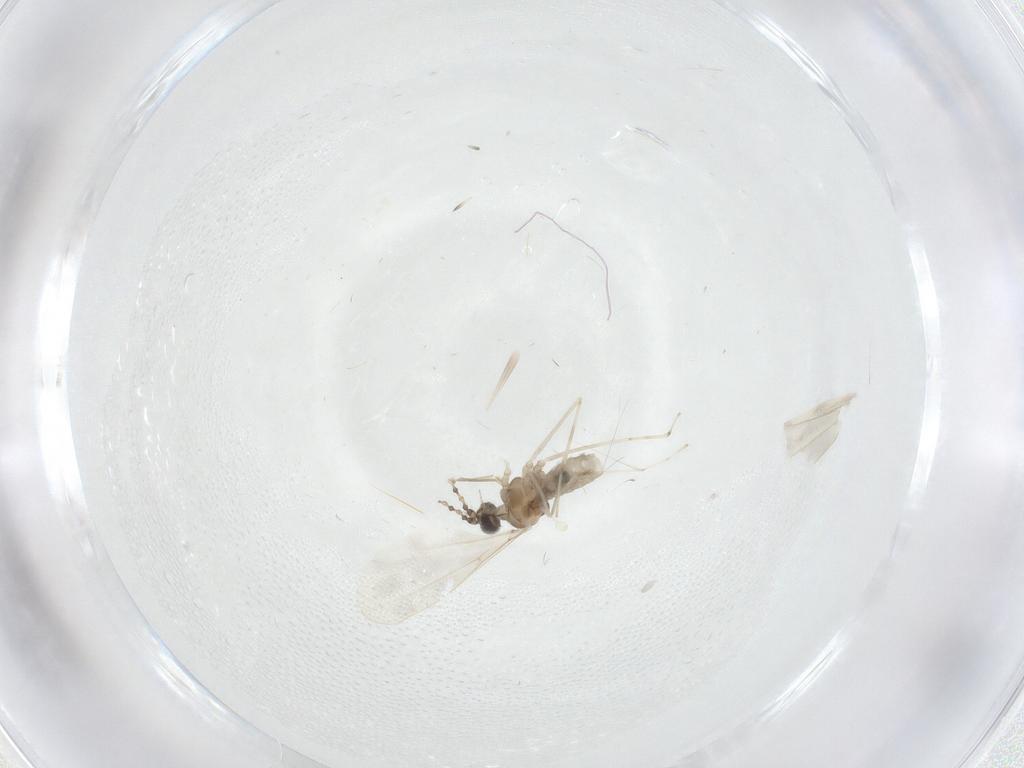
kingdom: Animalia
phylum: Arthropoda
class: Insecta
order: Diptera
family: Cecidomyiidae
